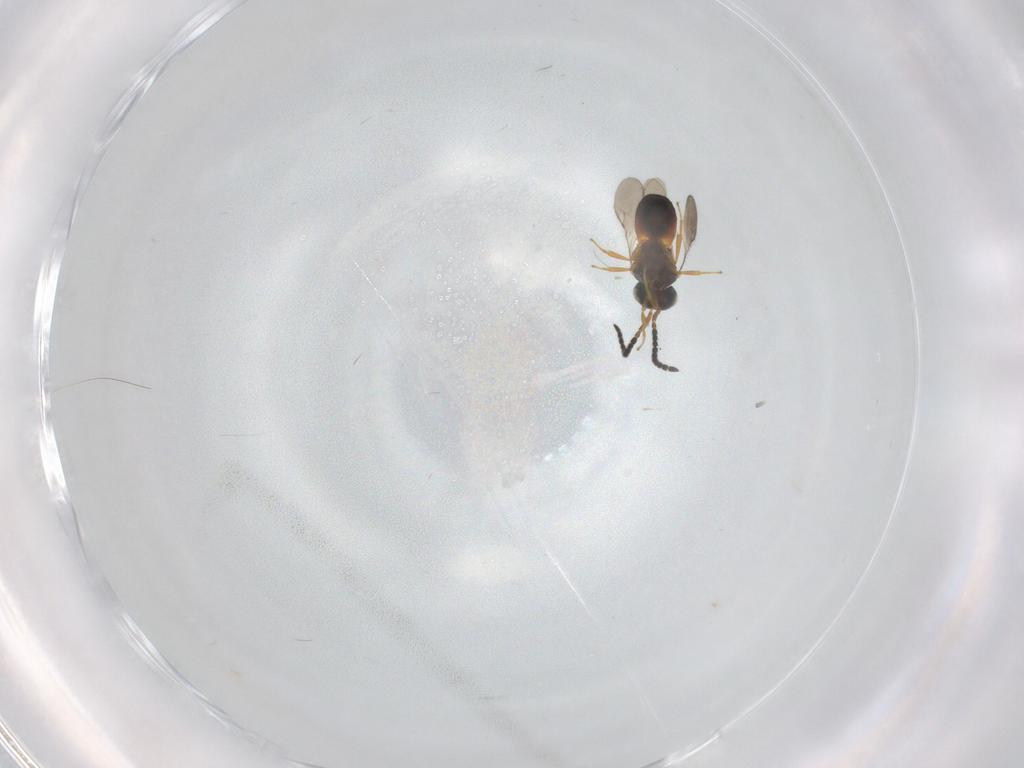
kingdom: Animalia
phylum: Arthropoda
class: Insecta
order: Hymenoptera
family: Scelionidae
